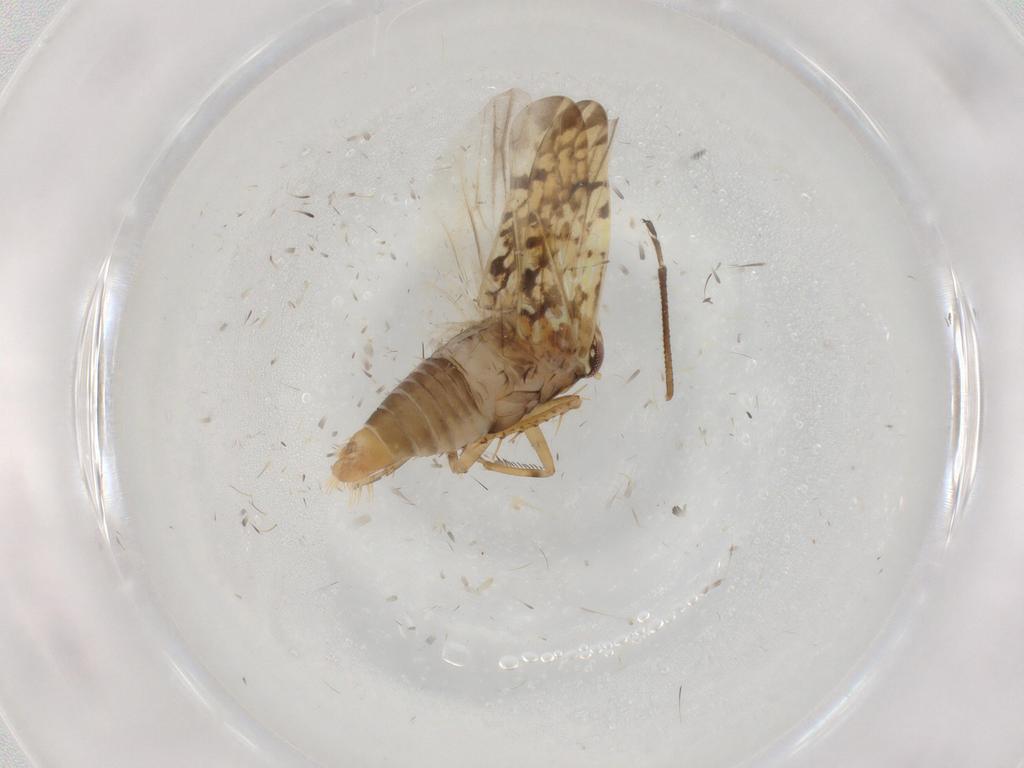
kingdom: Animalia
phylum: Arthropoda
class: Insecta
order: Hemiptera
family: Cicadellidae
